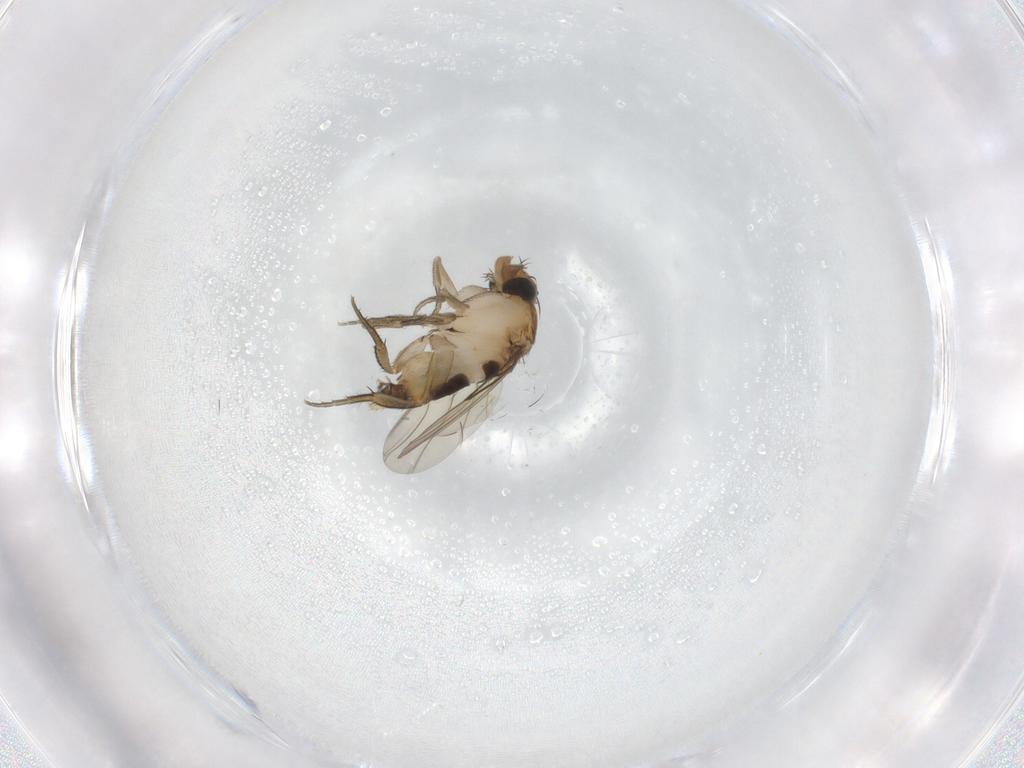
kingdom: Animalia
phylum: Arthropoda
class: Insecta
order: Diptera
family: Phoridae
